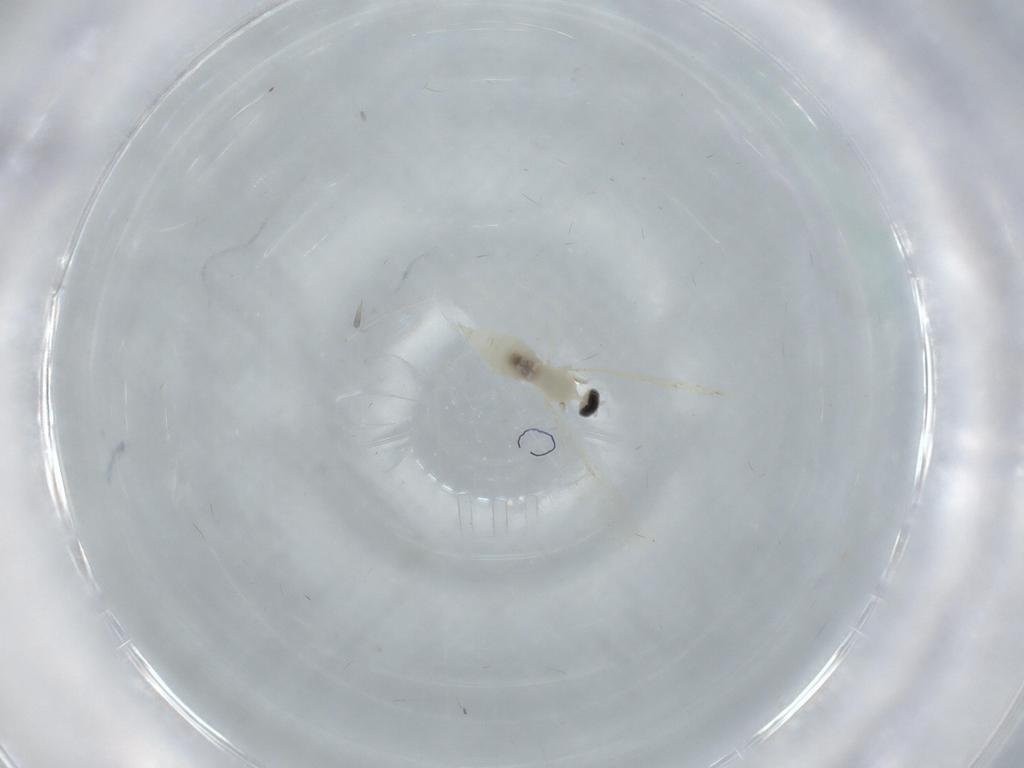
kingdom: Animalia
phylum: Arthropoda
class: Insecta
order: Diptera
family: Cecidomyiidae
